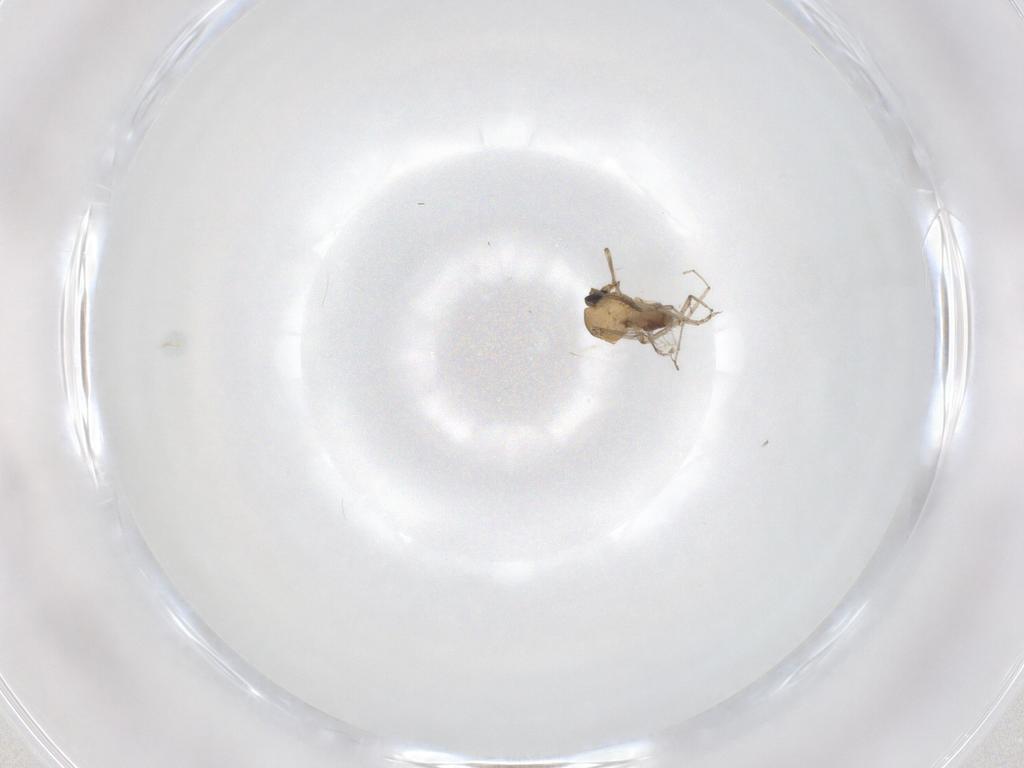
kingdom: Animalia
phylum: Arthropoda
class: Insecta
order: Diptera
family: Ceratopogonidae
